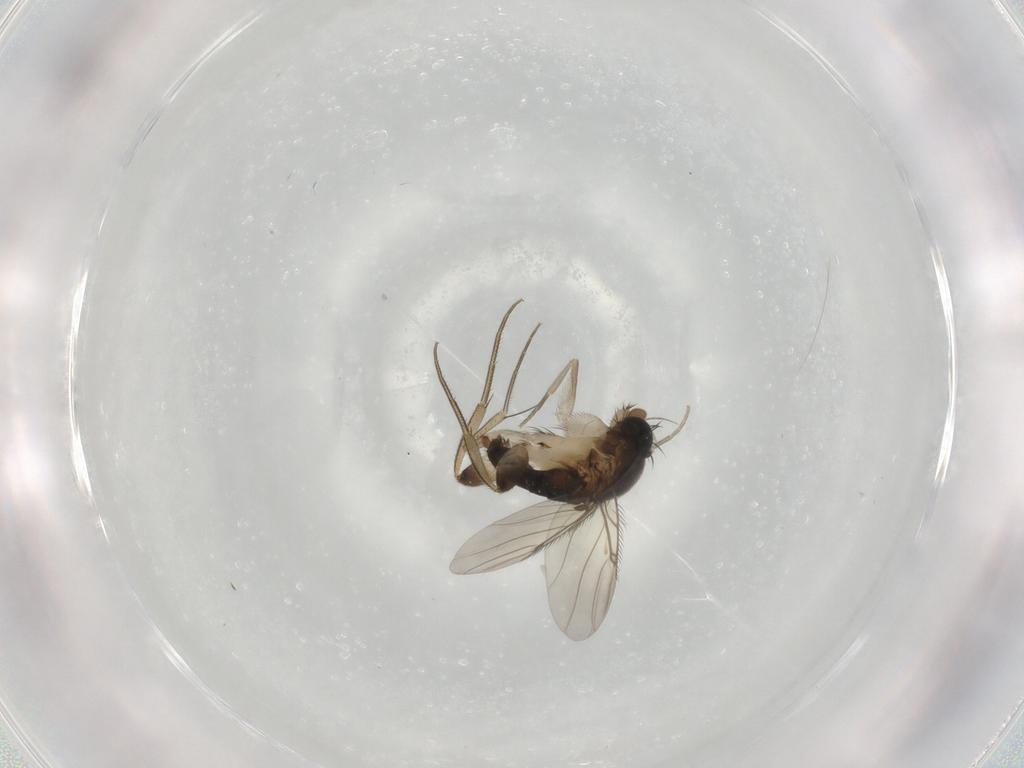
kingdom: Animalia
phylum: Arthropoda
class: Insecta
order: Diptera
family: Phoridae
